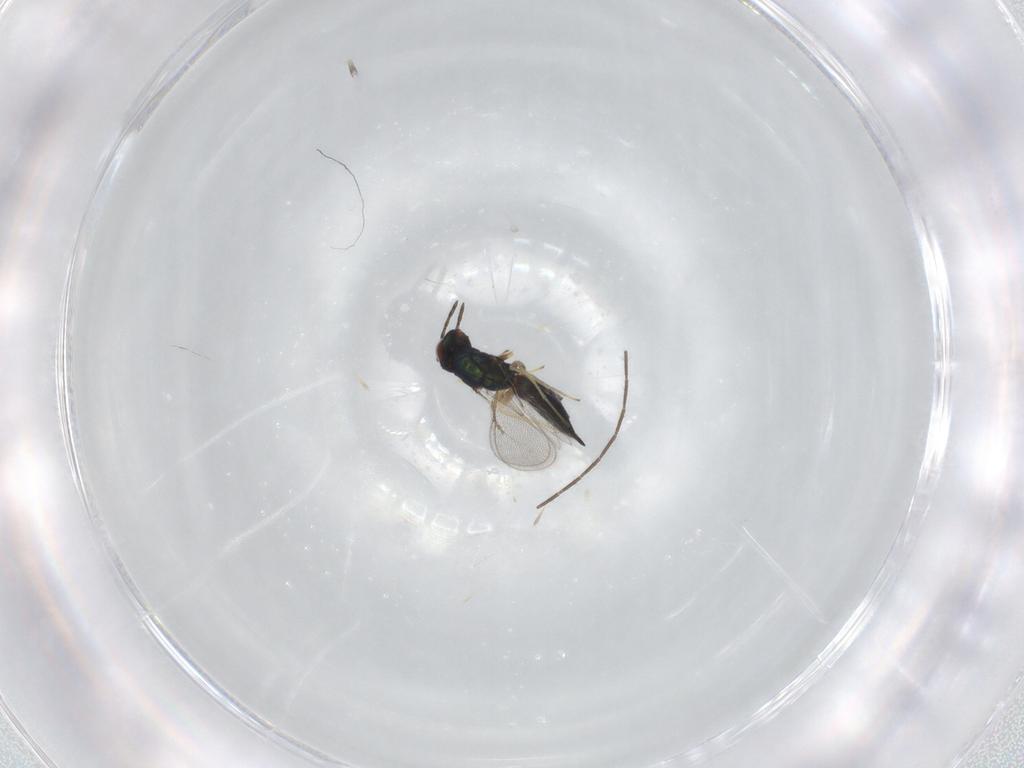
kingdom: Animalia
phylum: Arthropoda
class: Insecta
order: Hymenoptera
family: Eulophidae
